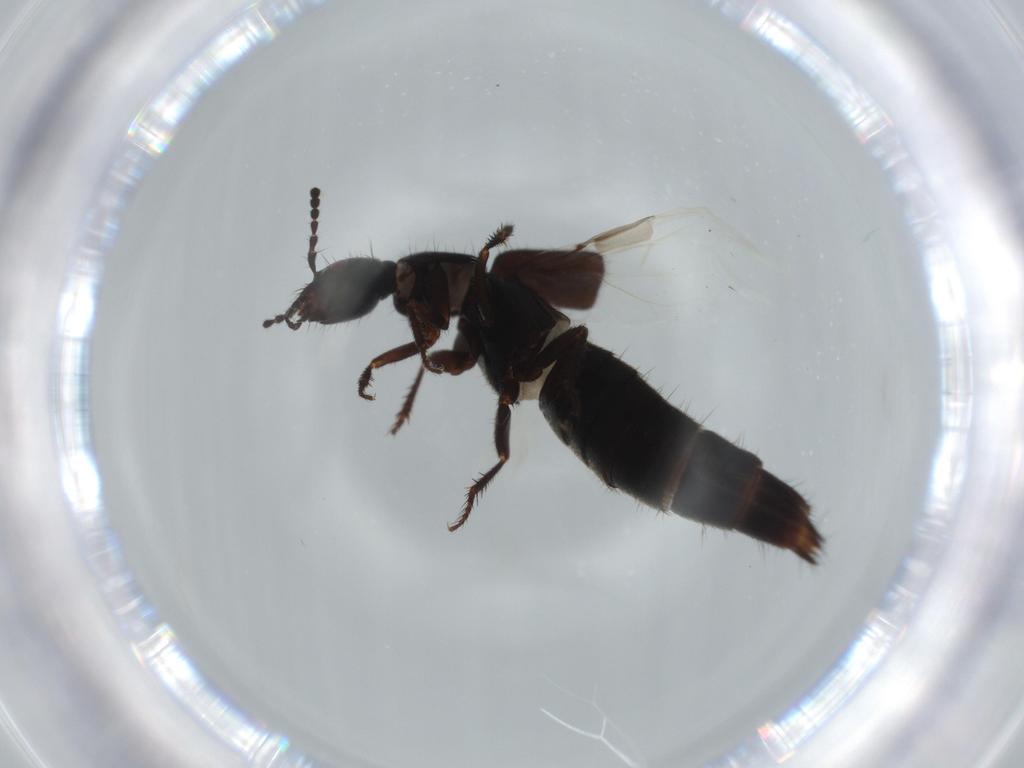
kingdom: Animalia
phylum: Arthropoda
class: Insecta
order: Coleoptera
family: Staphylinidae
